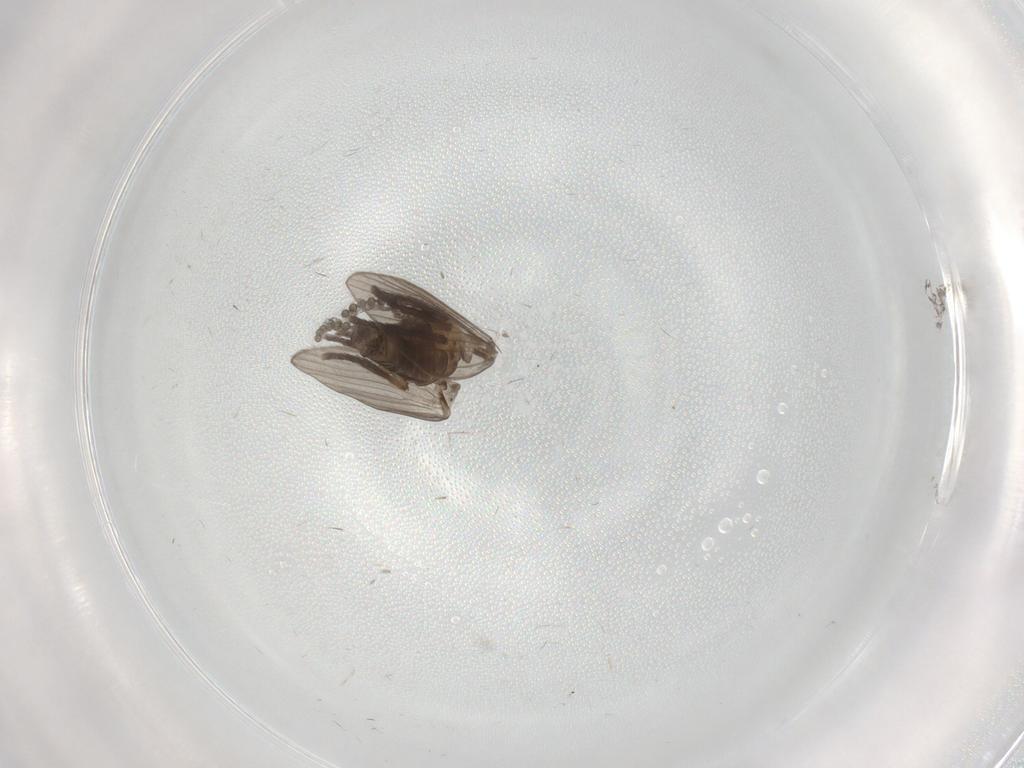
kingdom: Animalia
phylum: Arthropoda
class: Insecta
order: Diptera
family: Psychodidae
